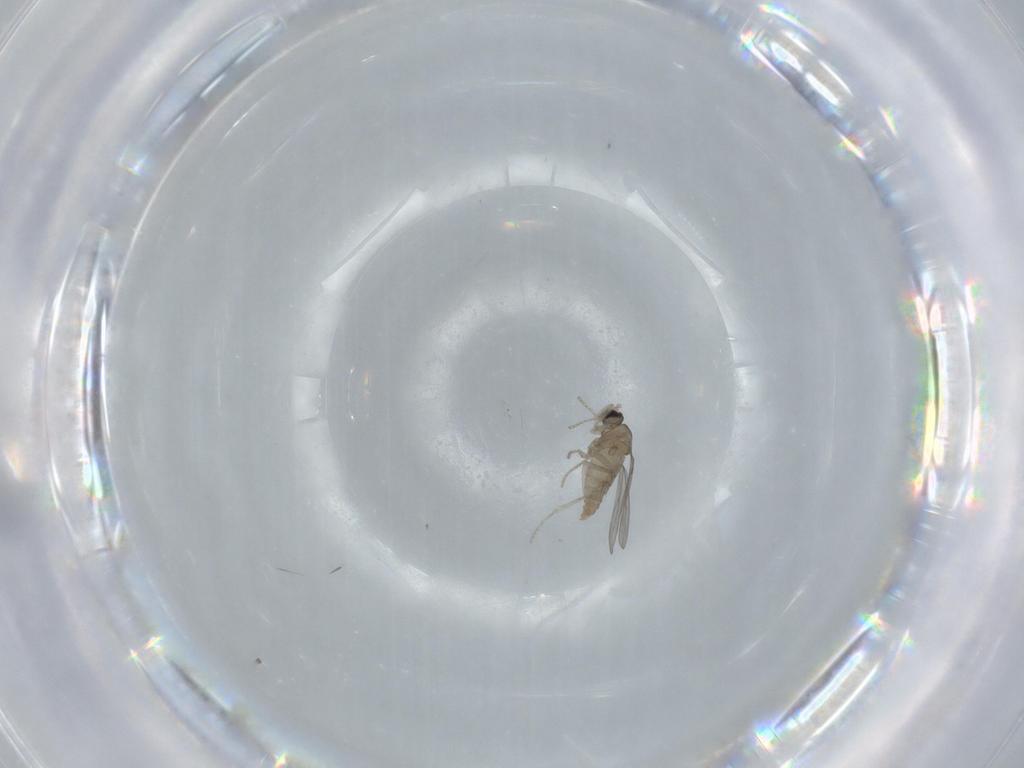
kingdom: Animalia
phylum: Arthropoda
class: Insecta
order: Diptera
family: Cecidomyiidae
